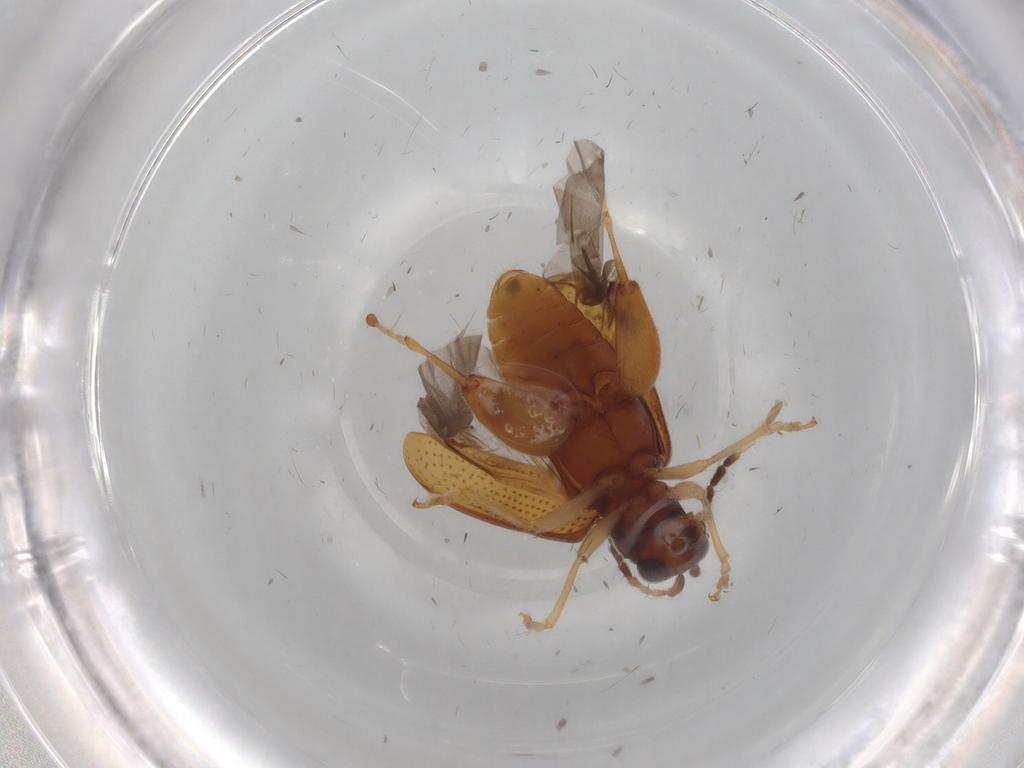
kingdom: Animalia
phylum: Arthropoda
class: Insecta
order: Coleoptera
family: Chrysomelidae
